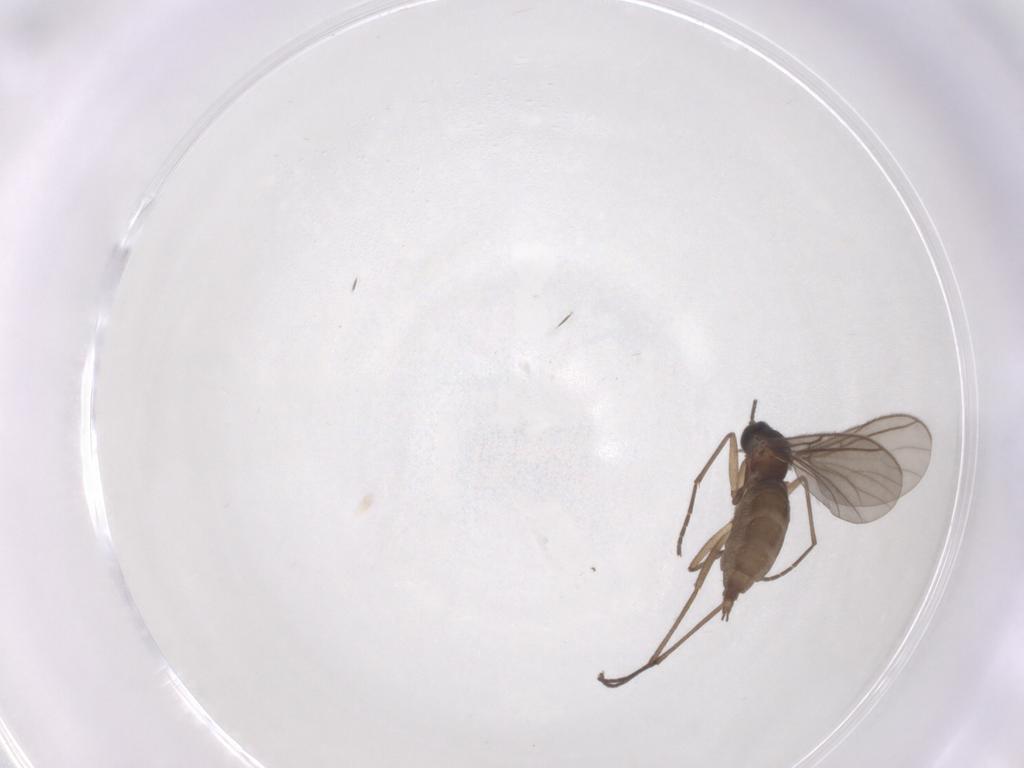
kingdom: Animalia
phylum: Arthropoda
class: Insecta
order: Diptera
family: Sciaridae
